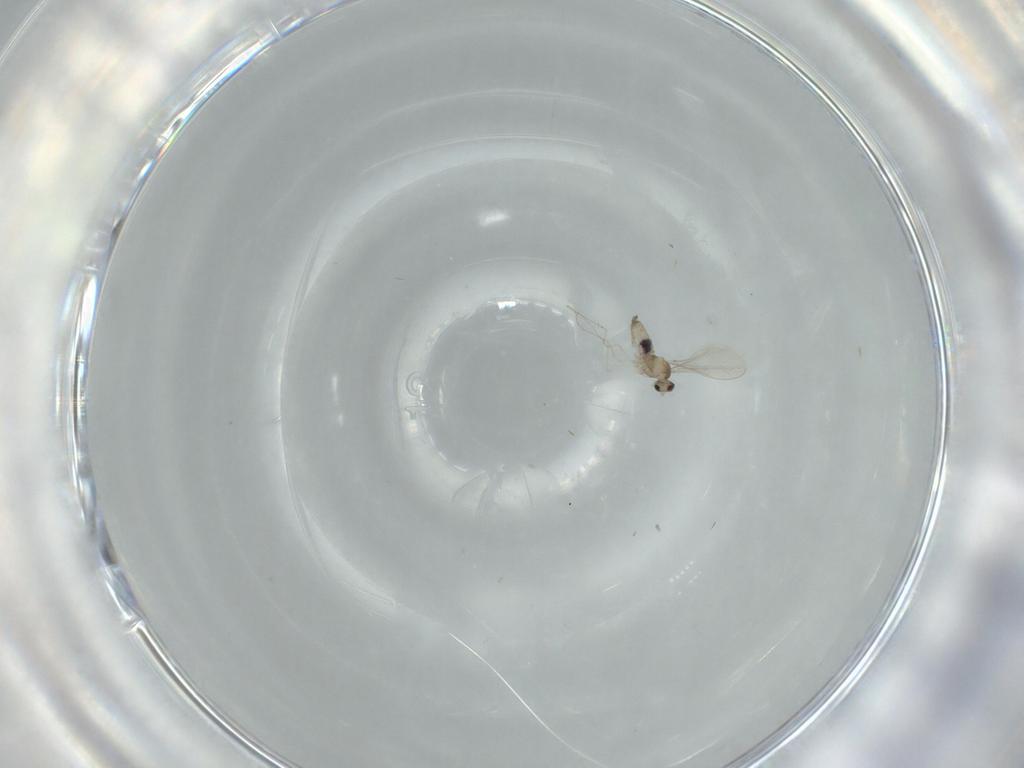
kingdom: Animalia
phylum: Arthropoda
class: Insecta
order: Diptera
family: Cecidomyiidae
